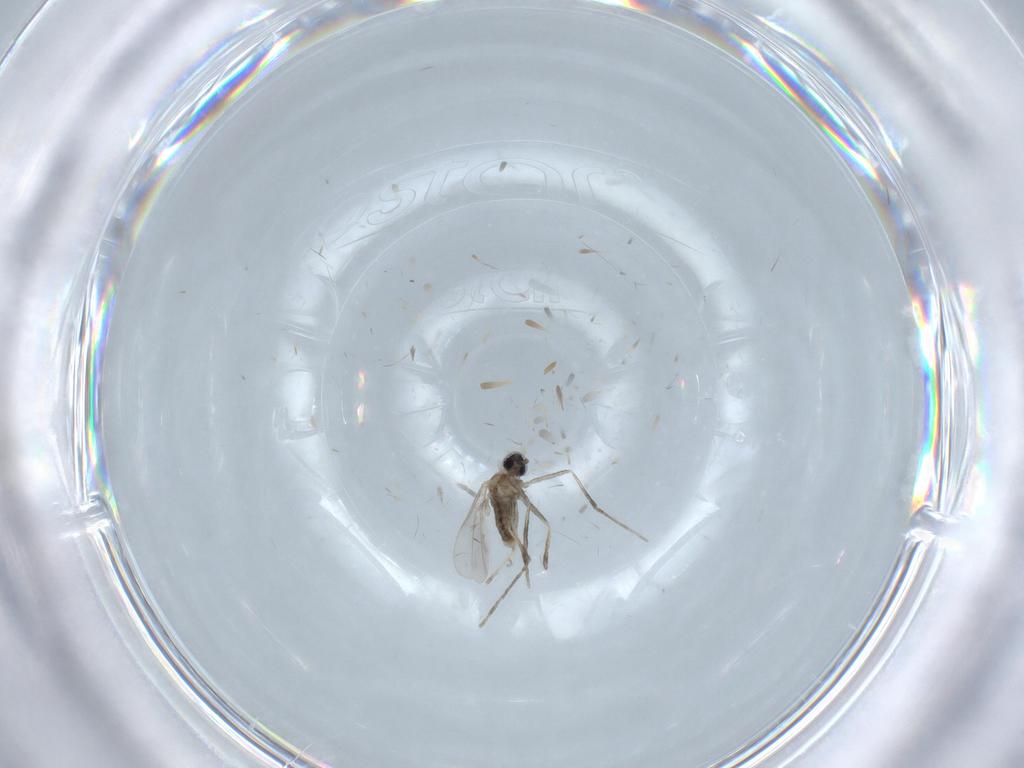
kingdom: Animalia
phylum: Arthropoda
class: Insecta
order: Diptera
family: Cecidomyiidae
